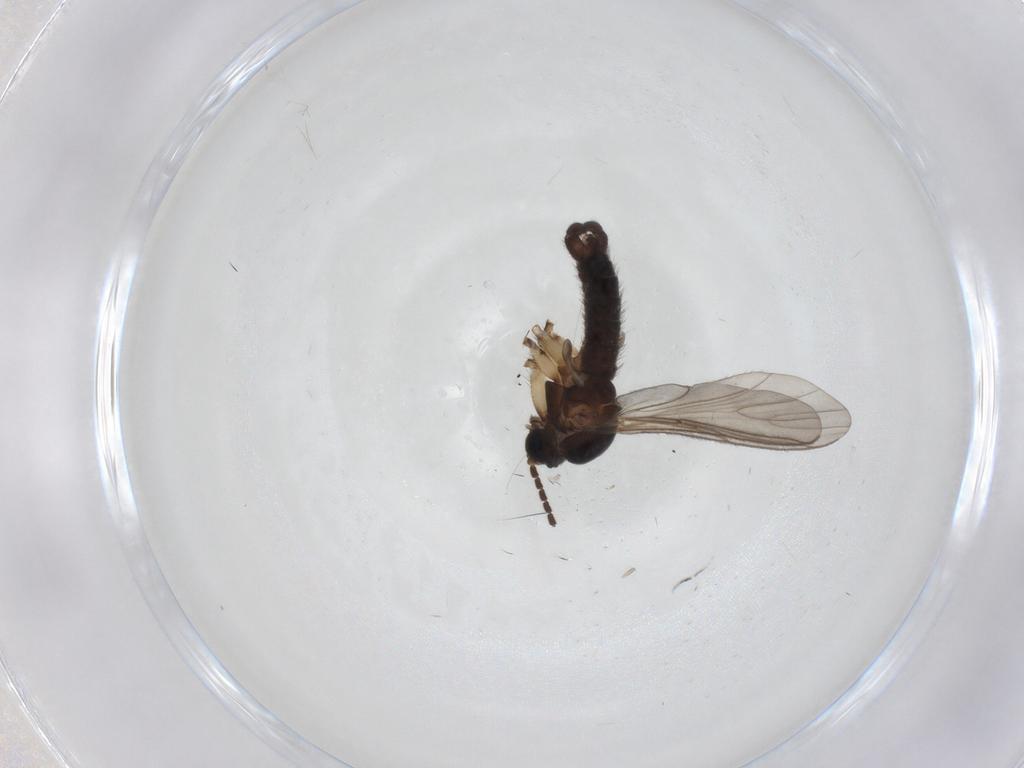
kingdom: Animalia
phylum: Arthropoda
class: Insecta
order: Diptera
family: Sciaridae
